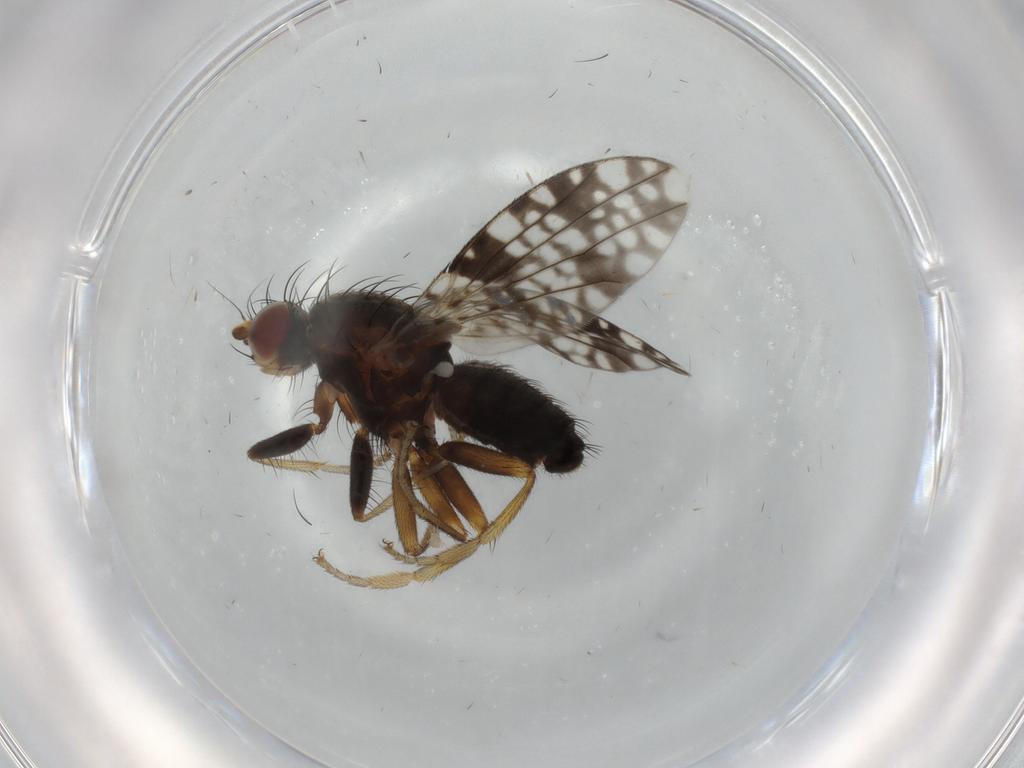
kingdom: Animalia
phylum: Arthropoda
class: Insecta
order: Diptera
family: Tephritidae
